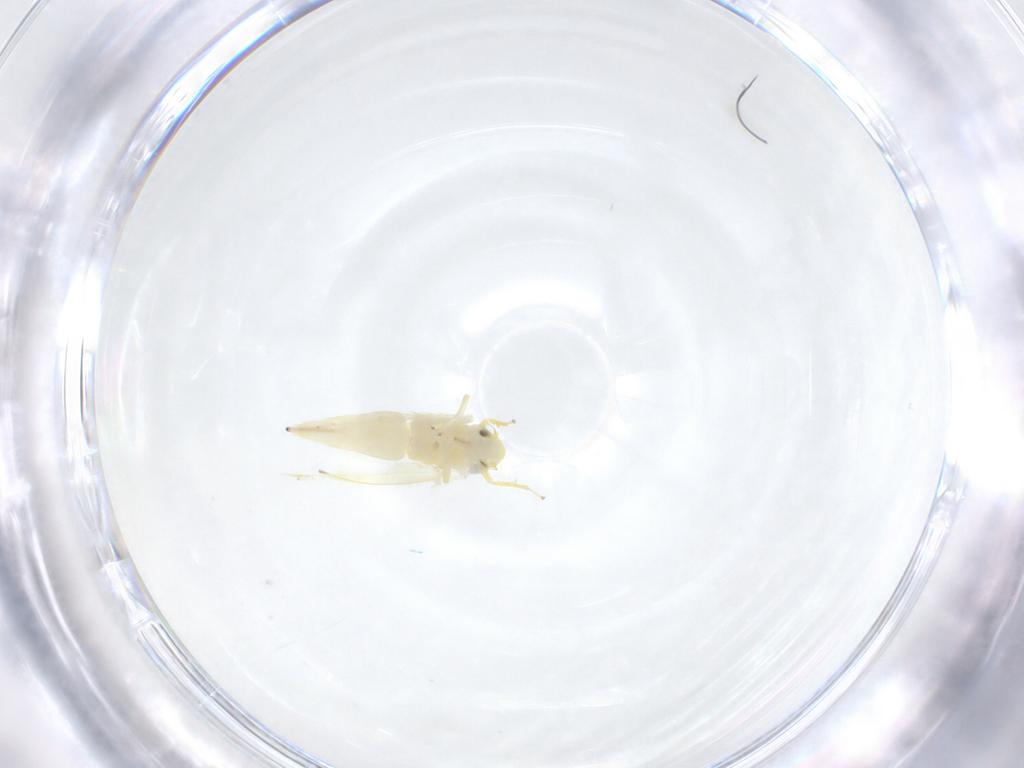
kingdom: Animalia
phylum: Arthropoda
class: Insecta
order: Hemiptera
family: Cicadellidae
